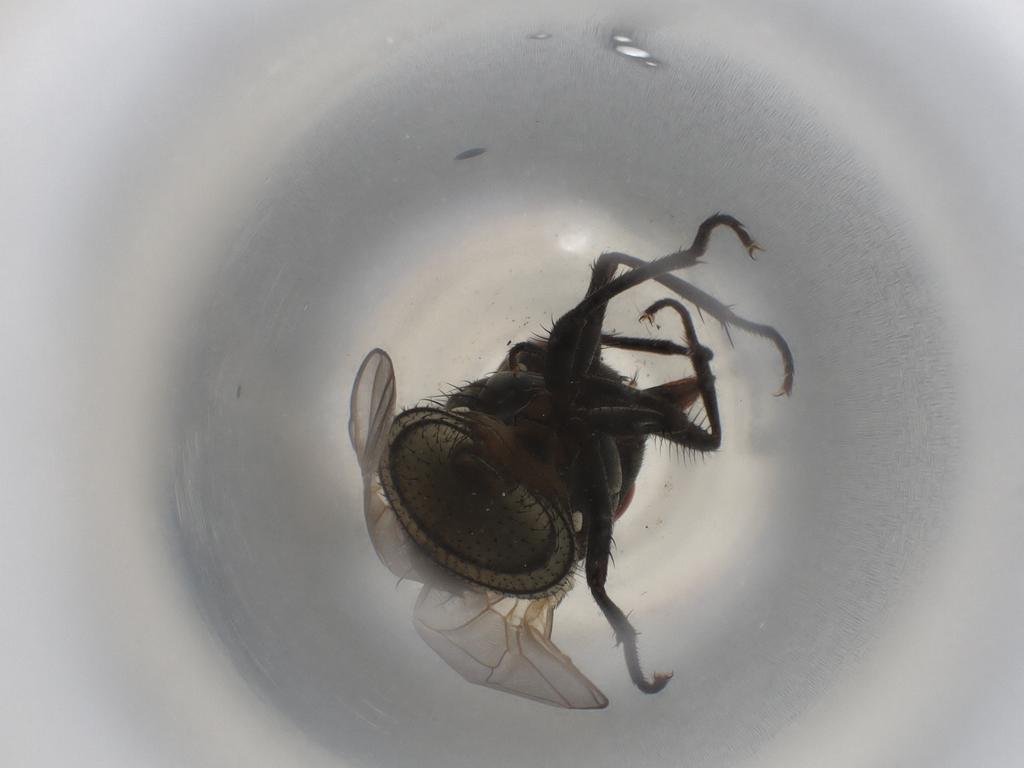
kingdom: Animalia
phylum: Arthropoda
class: Insecta
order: Diptera
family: Muscidae
